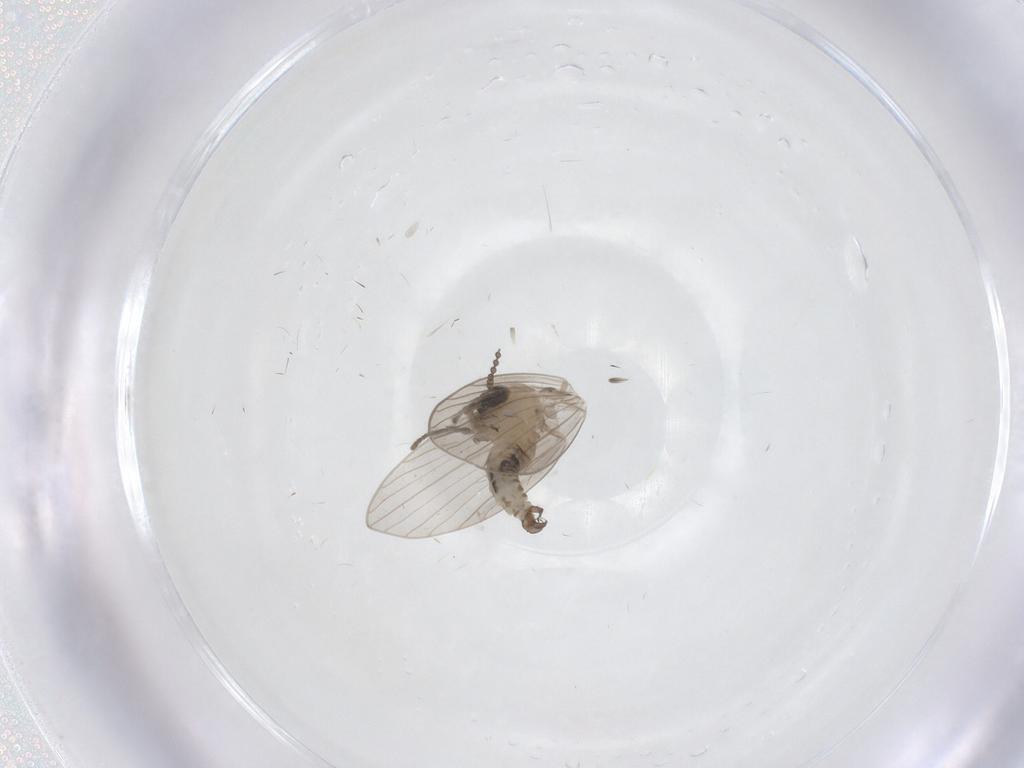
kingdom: Animalia
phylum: Arthropoda
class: Insecta
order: Diptera
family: Psychodidae
